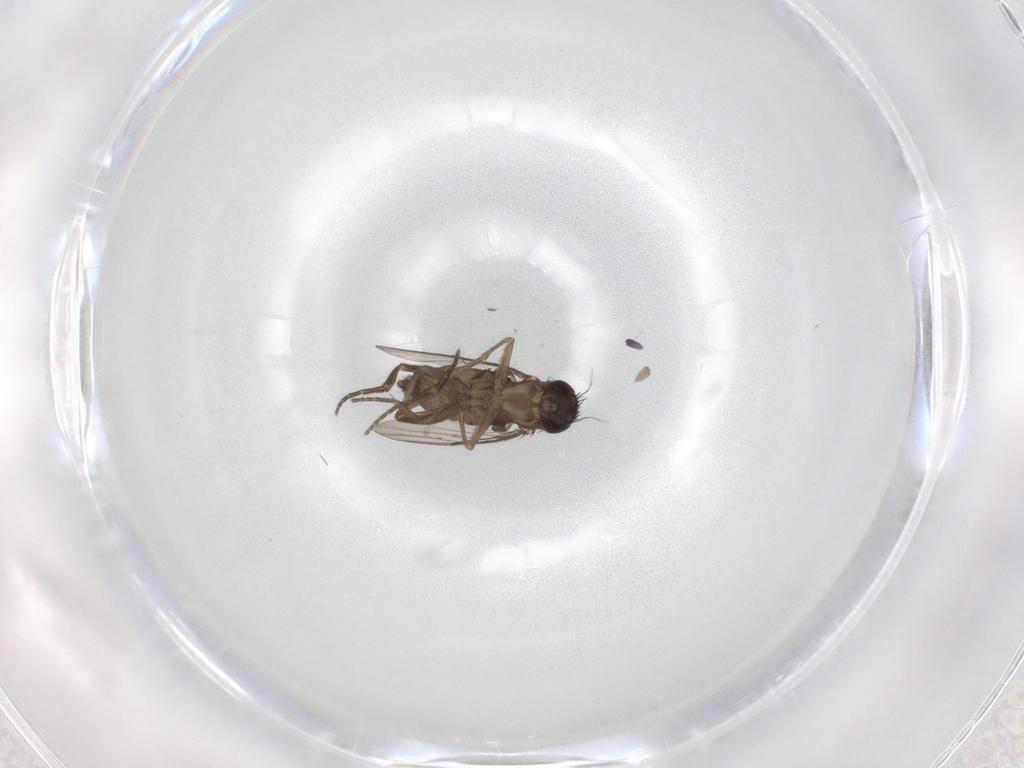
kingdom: Animalia
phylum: Arthropoda
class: Insecta
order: Diptera
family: Phoridae
